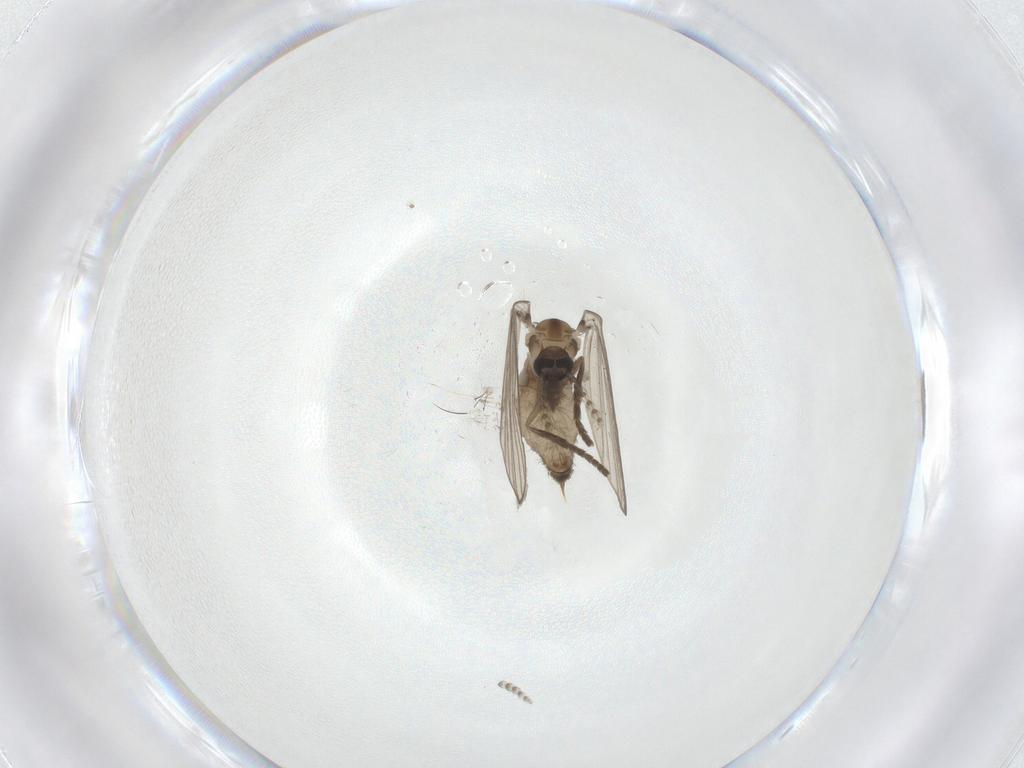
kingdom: Animalia
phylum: Arthropoda
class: Insecta
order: Diptera
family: Psychodidae
